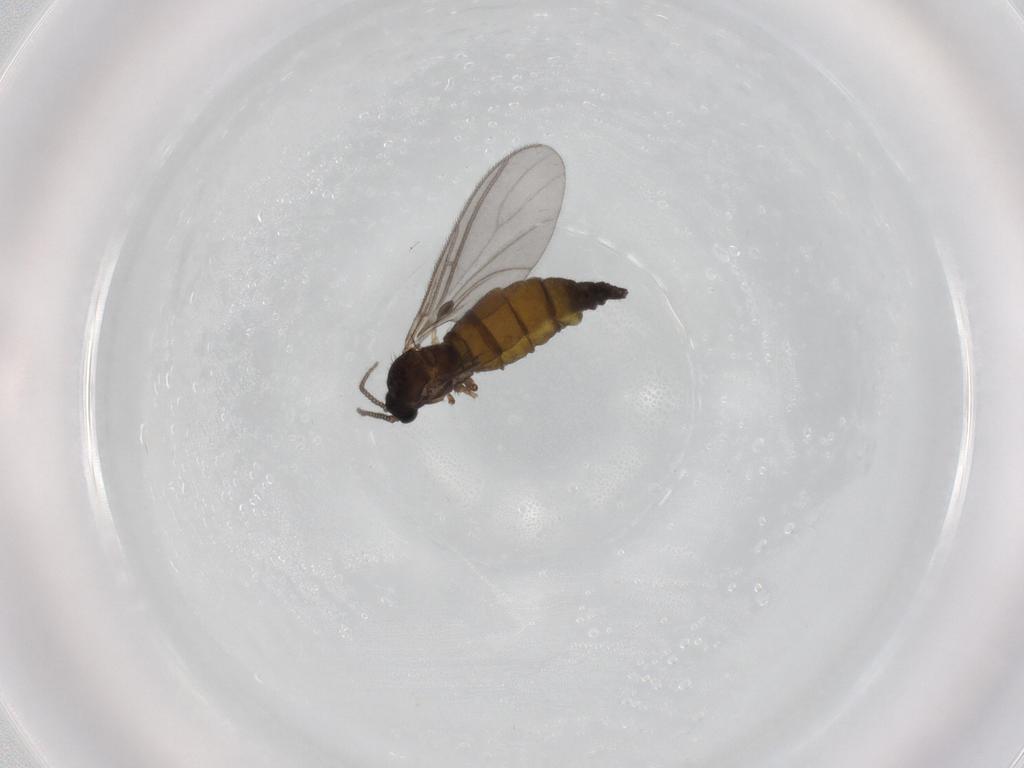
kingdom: Animalia
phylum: Arthropoda
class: Insecta
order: Diptera
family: Sciaridae
